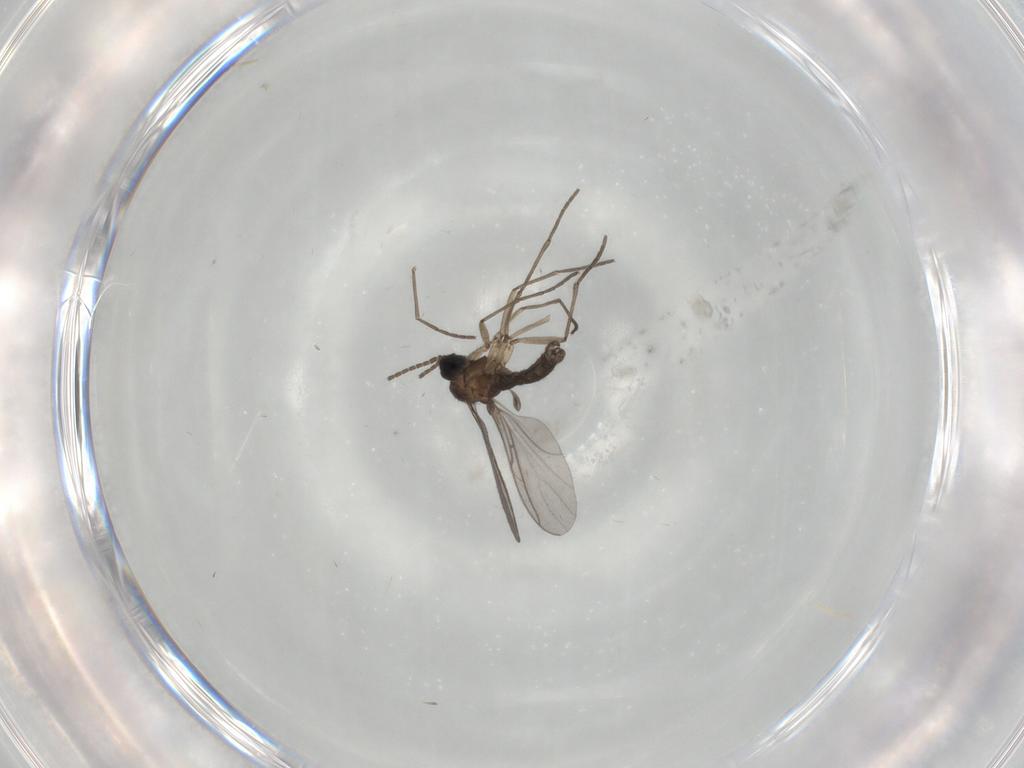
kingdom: Animalia
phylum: Arthropoda
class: Insecta
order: Diptera
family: Sciaridae
